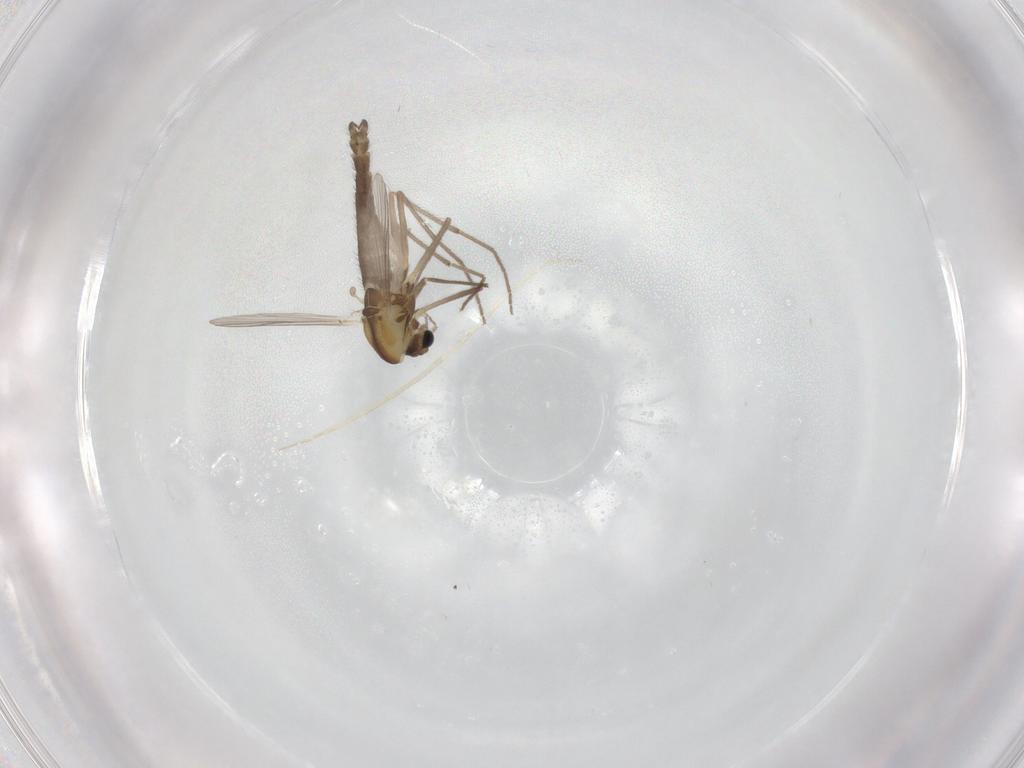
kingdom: Animalia
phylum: Arthropoda
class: Insecta
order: Diptera
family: Chironomidae
